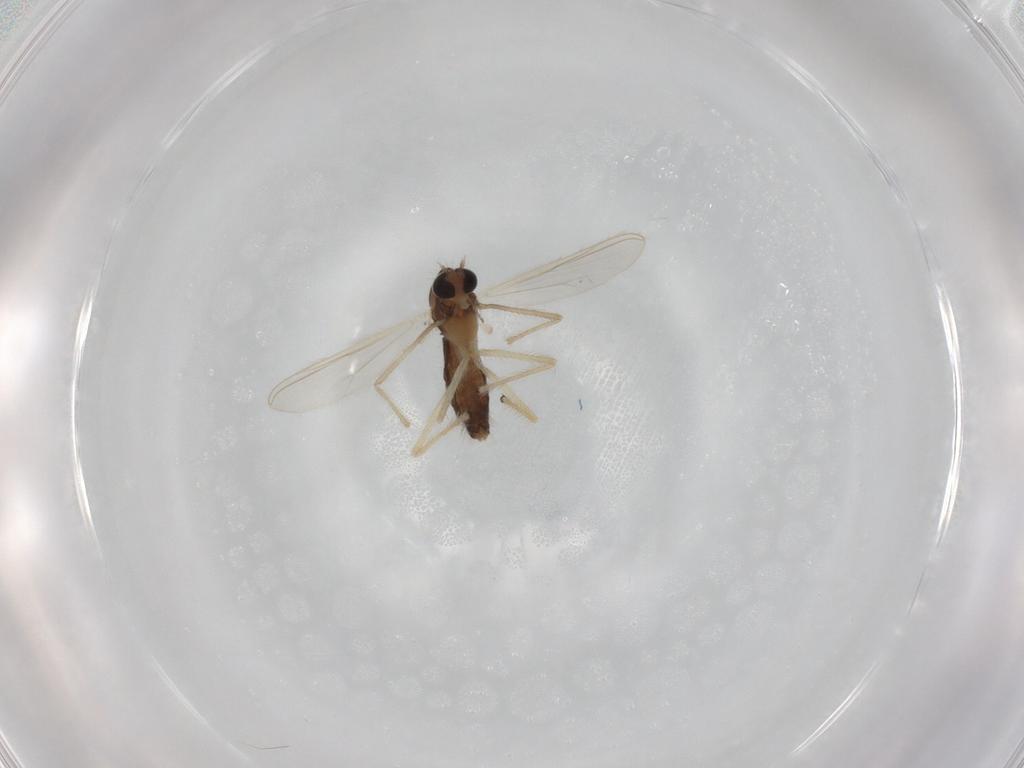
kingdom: Animalia
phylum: Arthropoda
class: Insecta
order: Diptera
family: Chironomidae
